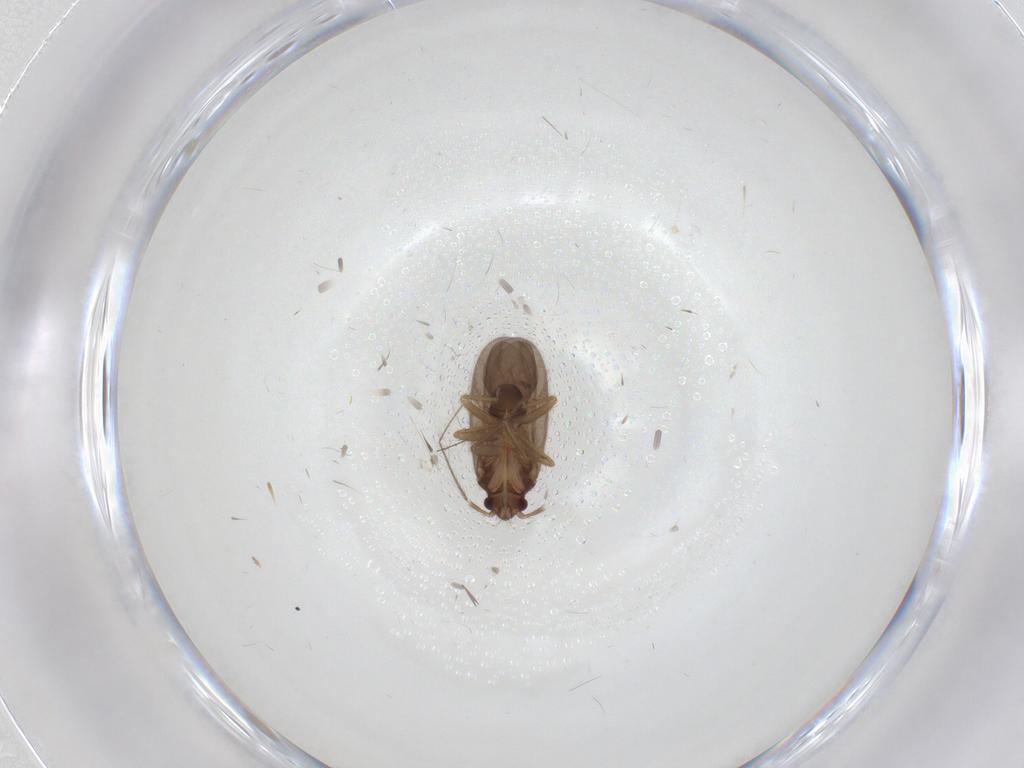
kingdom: Animalia
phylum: Arthropoda
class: Insecta
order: Hemiptera
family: Ceratocombidae
